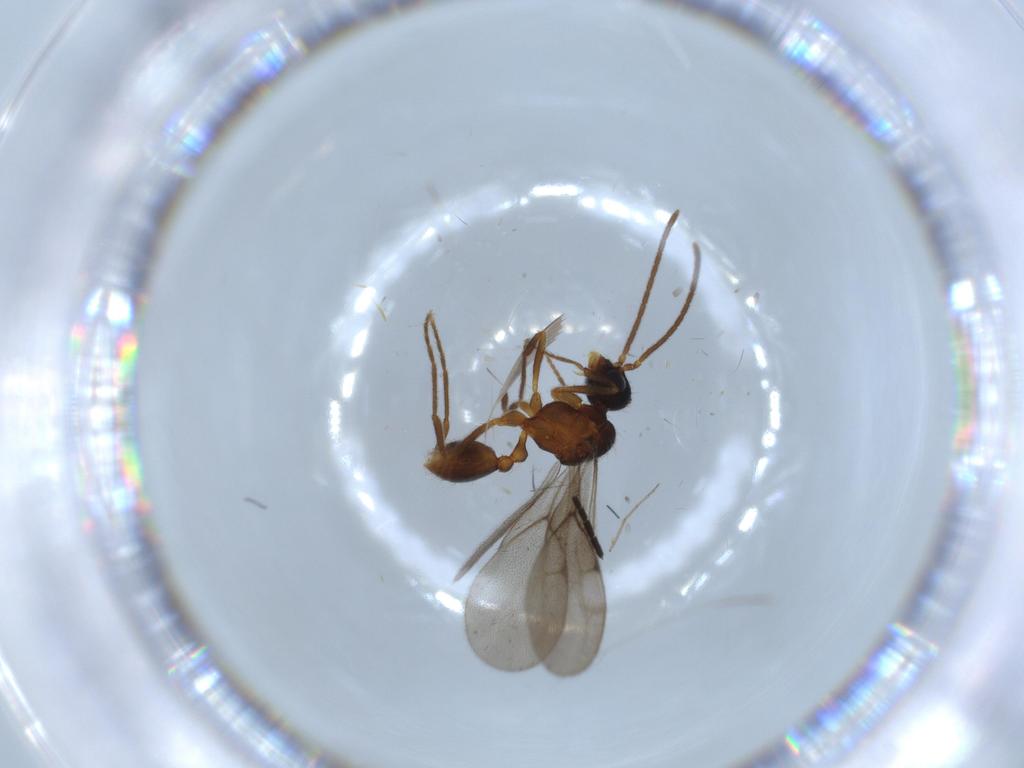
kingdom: Animalia
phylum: Arthropoda
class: Insecta
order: Hymenoptera
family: Formicidae
